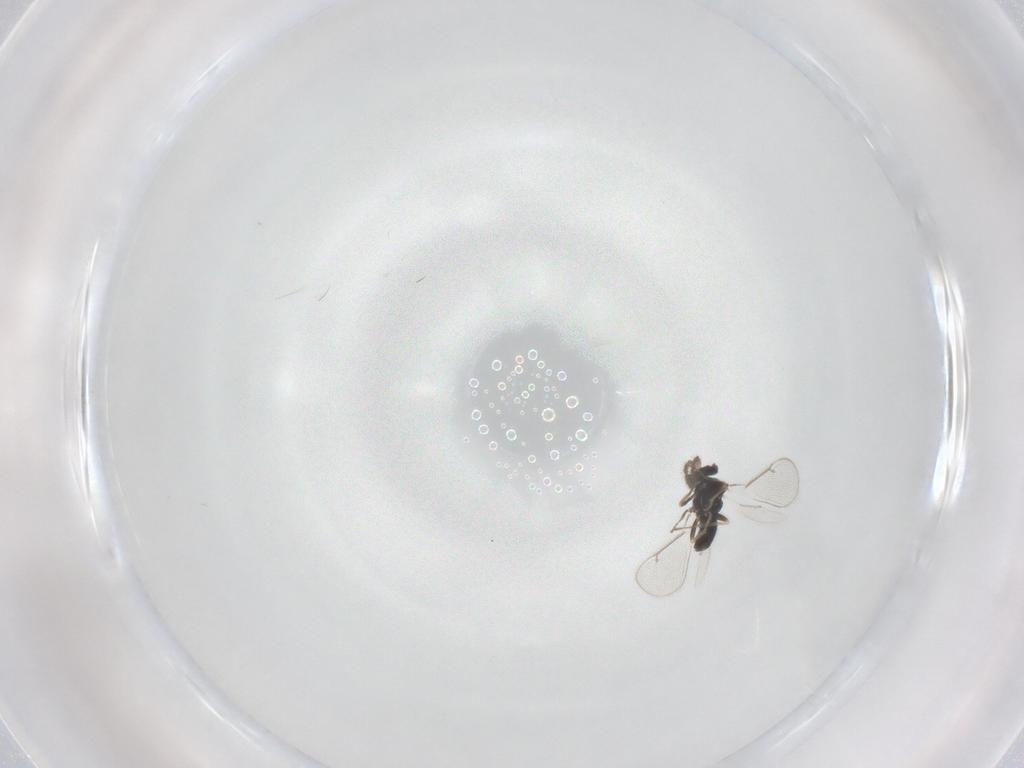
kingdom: Animalia
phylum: Arthropoda
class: Insecta
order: Hymenoptera
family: Eulophidae
